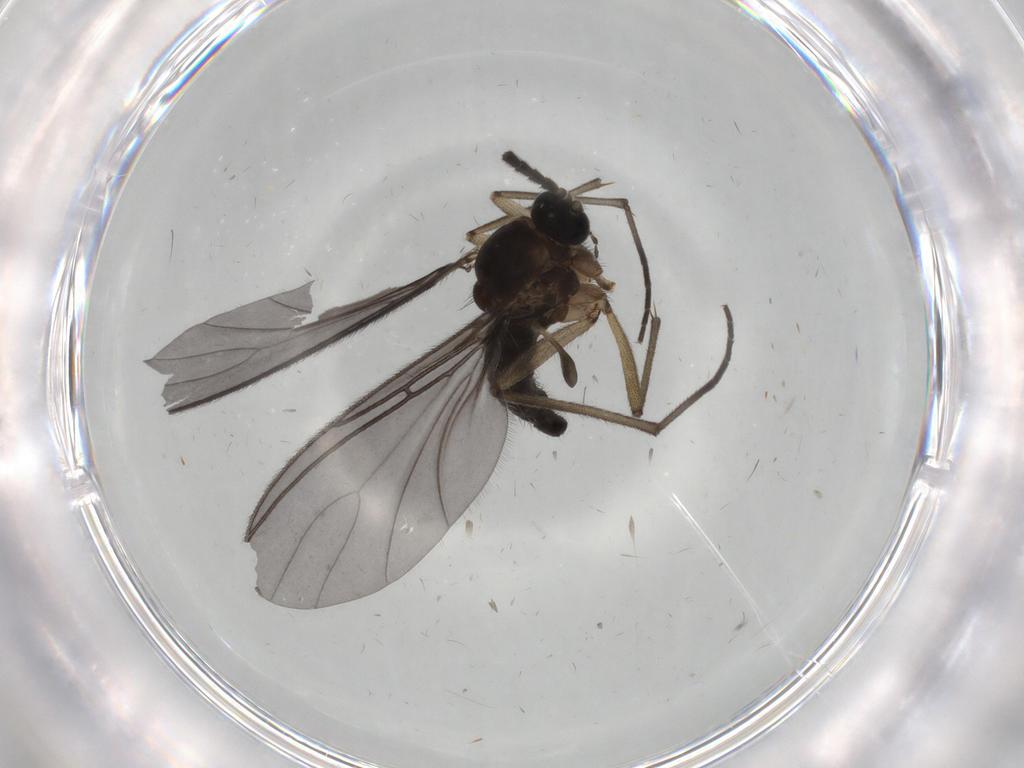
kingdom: Animalia
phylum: Arthropoda
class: Insecta
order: Diptera
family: Sciaridae
